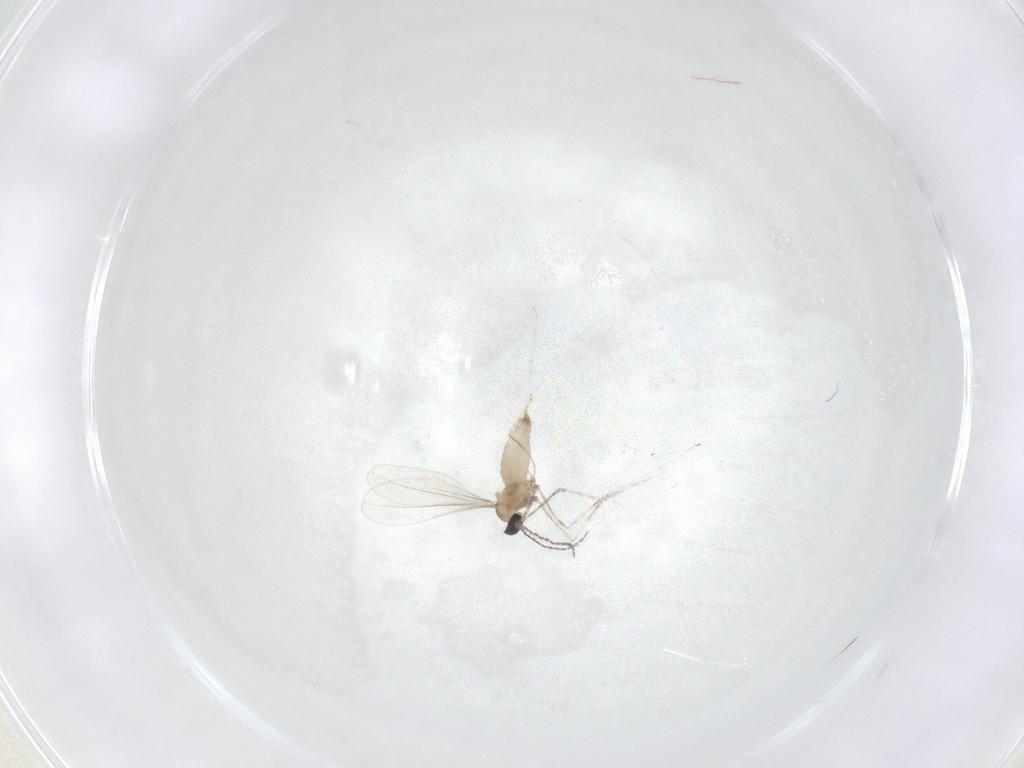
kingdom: Animalia
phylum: Arthropoda
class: Insecta
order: Diptera
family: Cecidomyiidae
